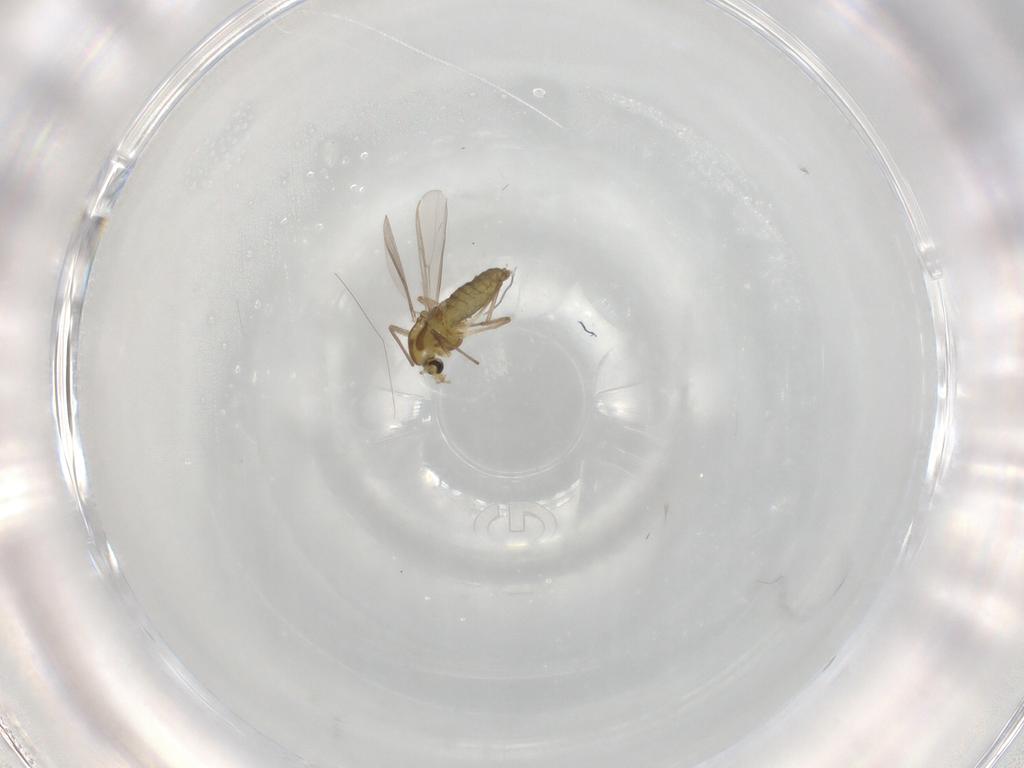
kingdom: Animalia
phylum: Arthropoda
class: Insecta
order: Diptera
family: Chironomidae
